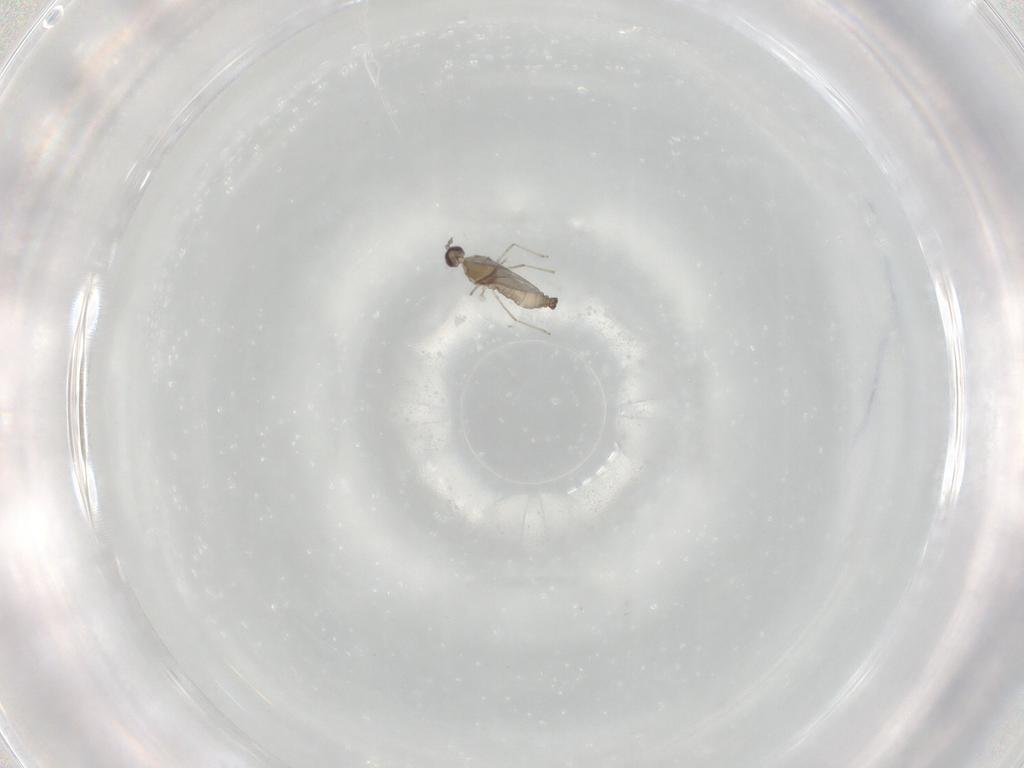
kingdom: Animalia
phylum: Arthropoda
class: Insecta
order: Diptera
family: Cecidomyiidae
